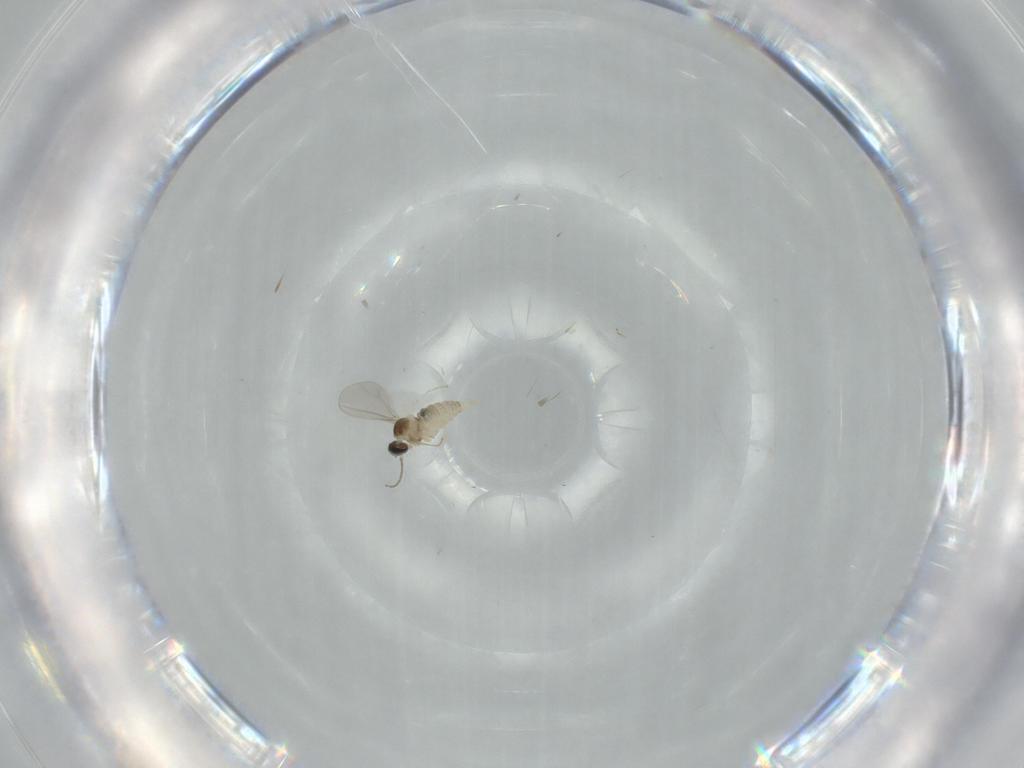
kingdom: Animalia
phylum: Arthropoda
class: Insecta
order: Diptera
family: Cecidomyiidae
